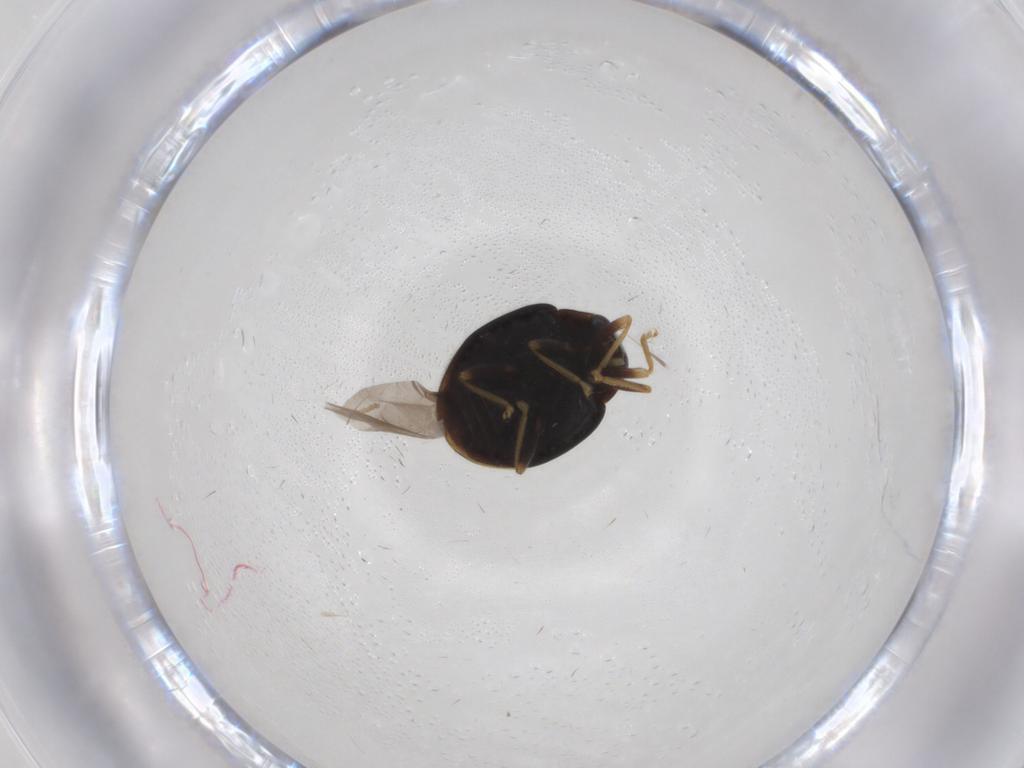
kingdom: Animalia
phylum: Arthropoda
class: Insecta
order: Coleoptera
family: Coccinellidae
